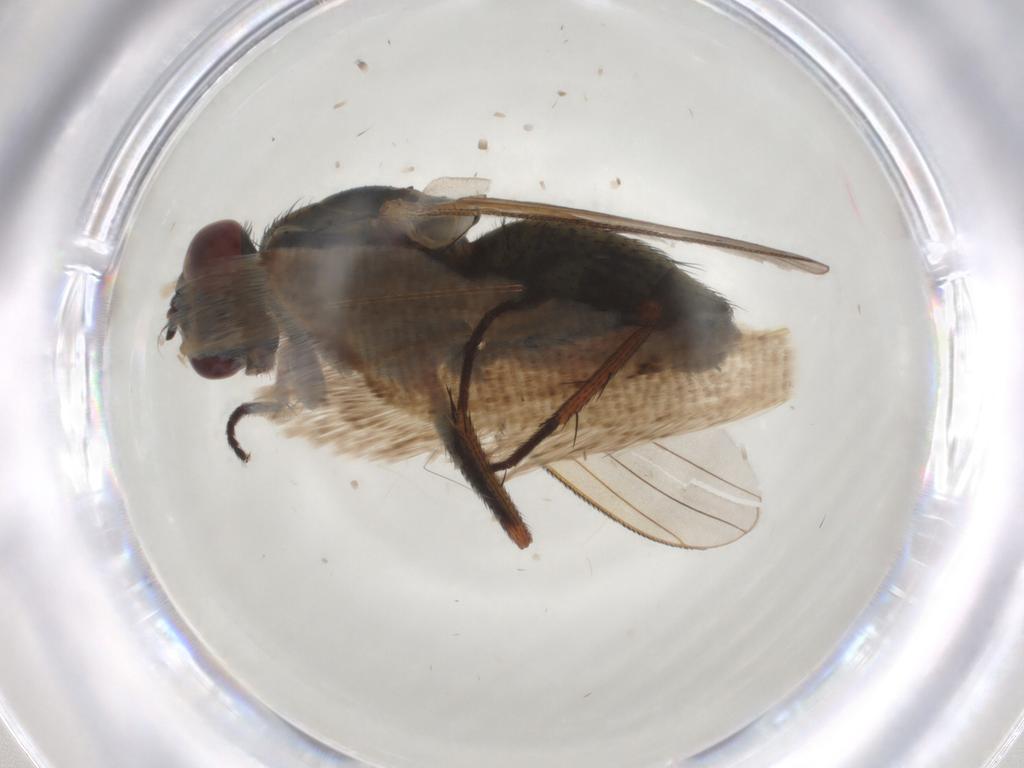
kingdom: Animalia
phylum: Arthropoda
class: Insecta
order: Diptera
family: Muscidae
